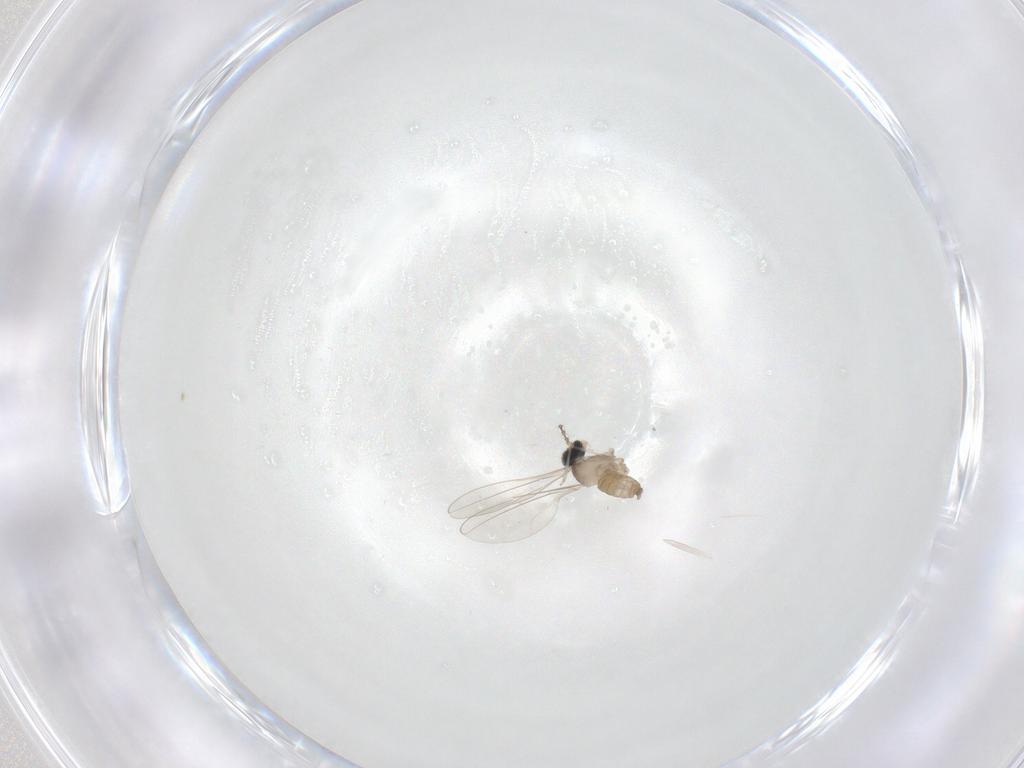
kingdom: Animalia
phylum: Arthropoda
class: Insecta
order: Diptera
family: Cecidomyiidae
